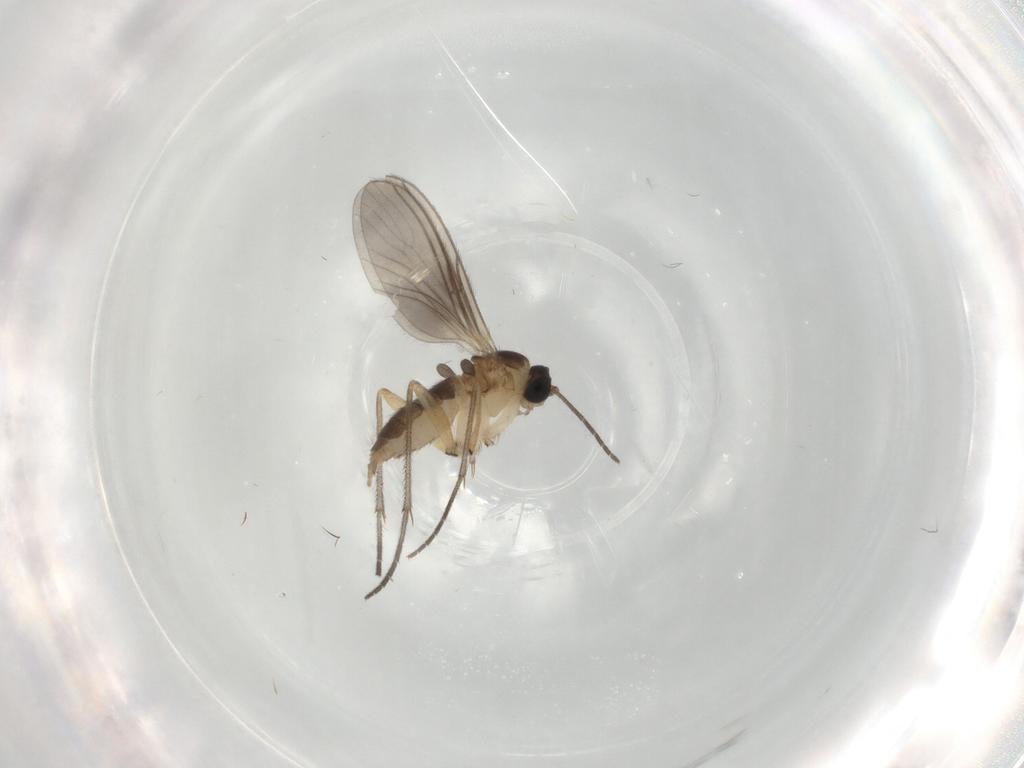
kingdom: Animalia
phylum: Arthropoda
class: Insecta
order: Diptera
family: Sciaridae
